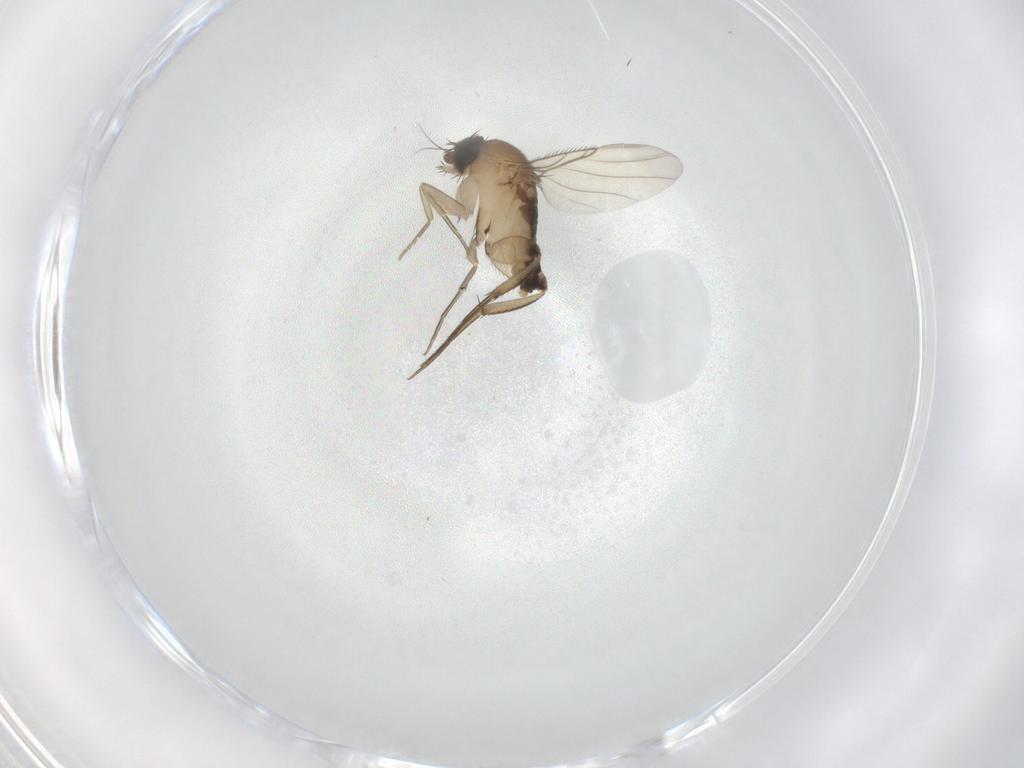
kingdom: Animalia
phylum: Arthropoda
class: Insecta
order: Diptera
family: Phoridae
